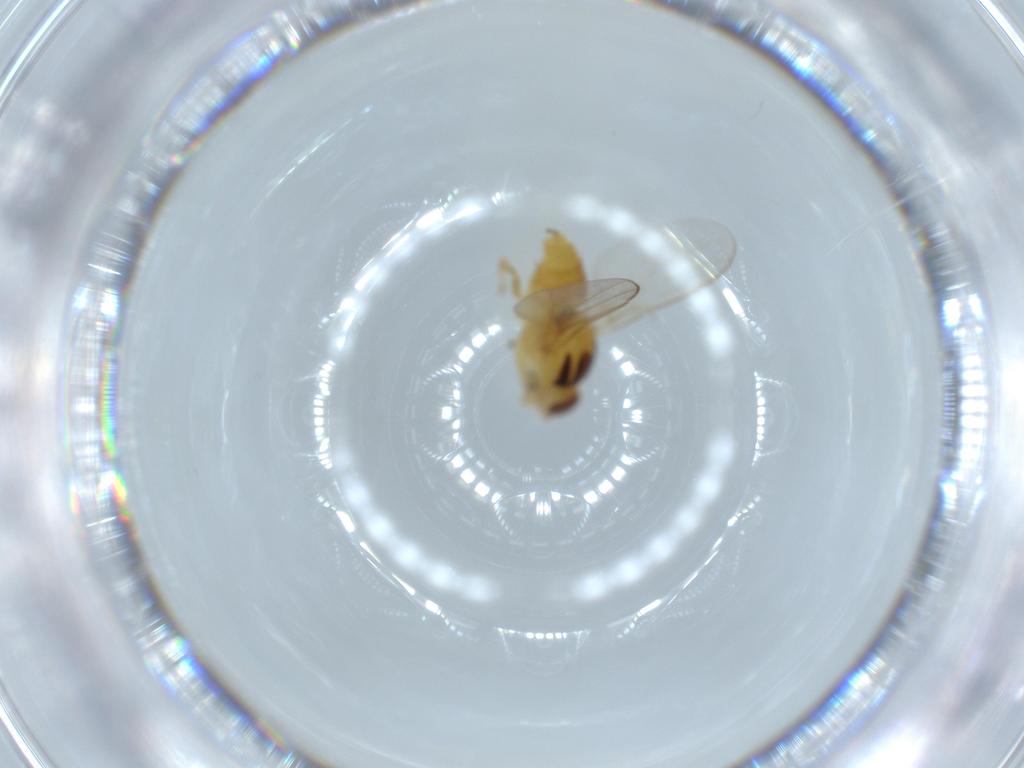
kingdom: Animalia
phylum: Arthropoda
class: Insecta
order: Diptera
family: Chloropidae
